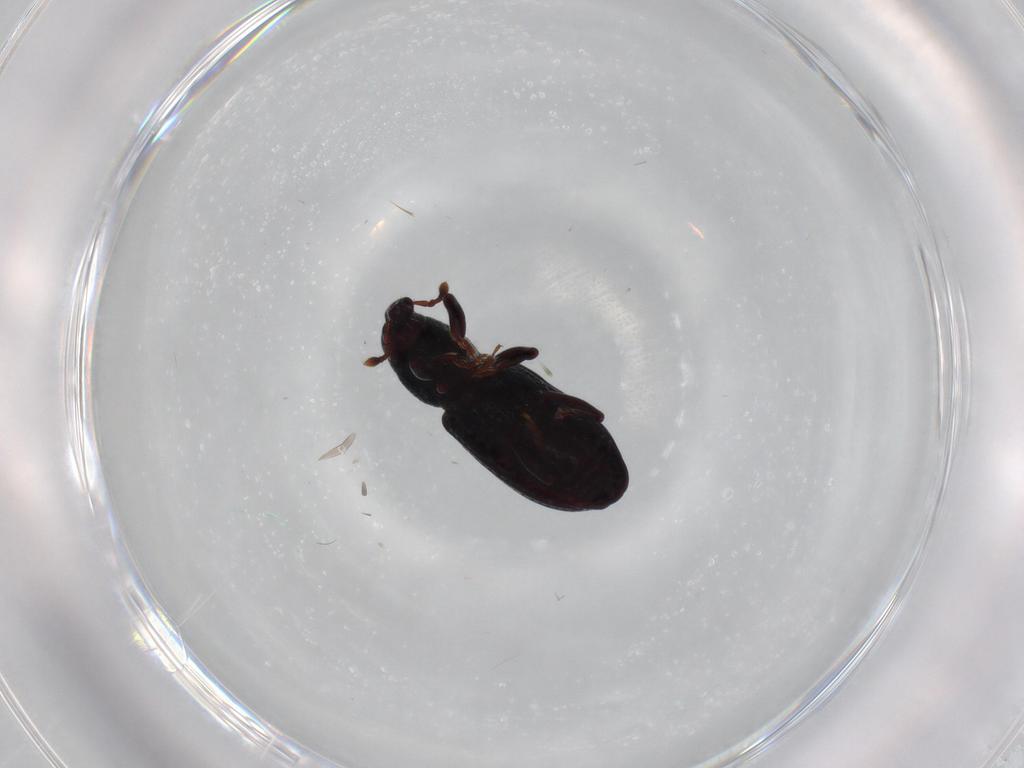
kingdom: Animalia
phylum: Arthropoda
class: Insecta
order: Coleoptera
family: Curculionidae
